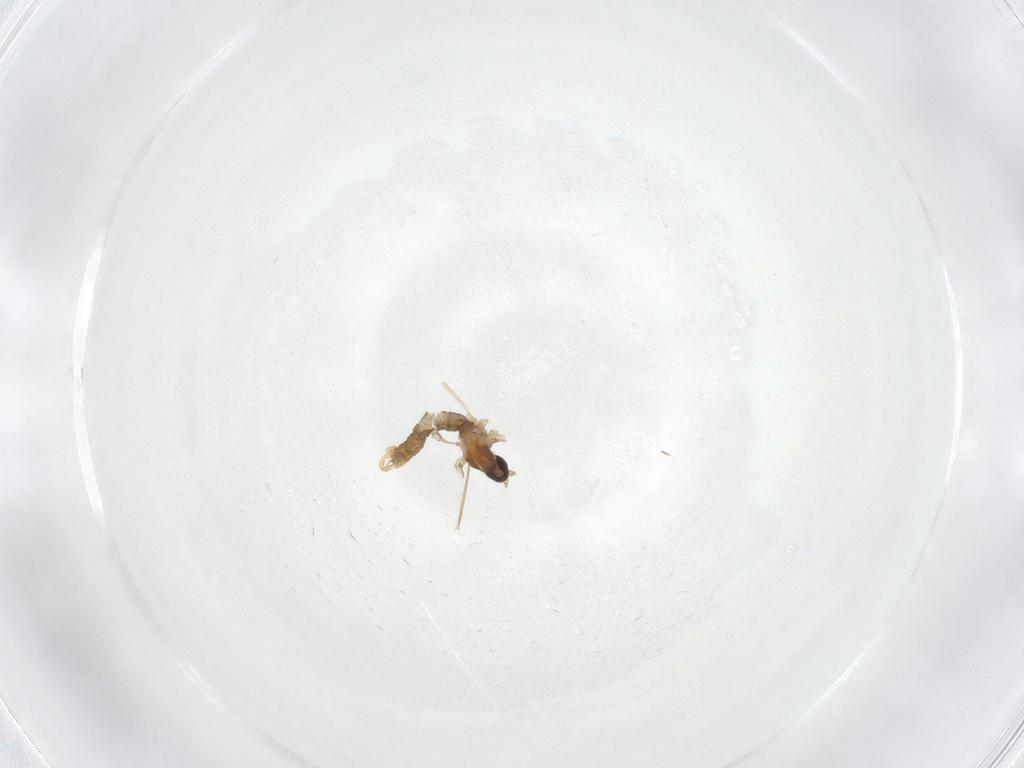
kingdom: Animalia
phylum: Arthropoda
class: Insecta
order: Diptera
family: Cecidomyiidae
